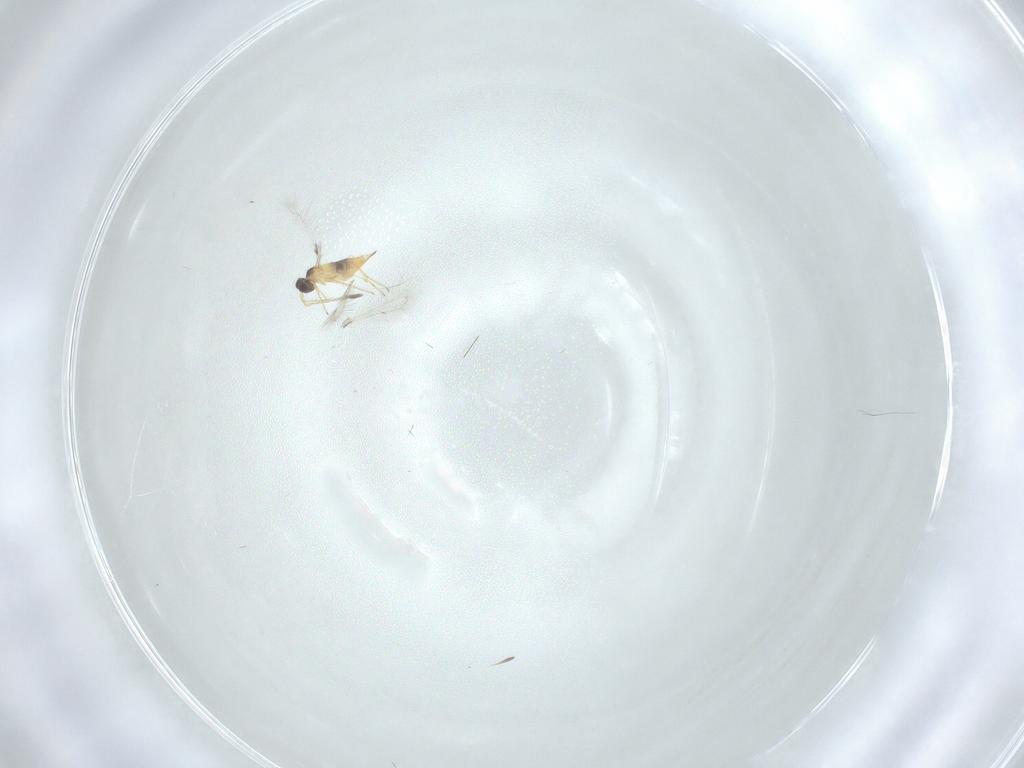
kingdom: Animalia
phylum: Arthropoda
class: Insecta
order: Hymenoptera
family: Mymaridae
